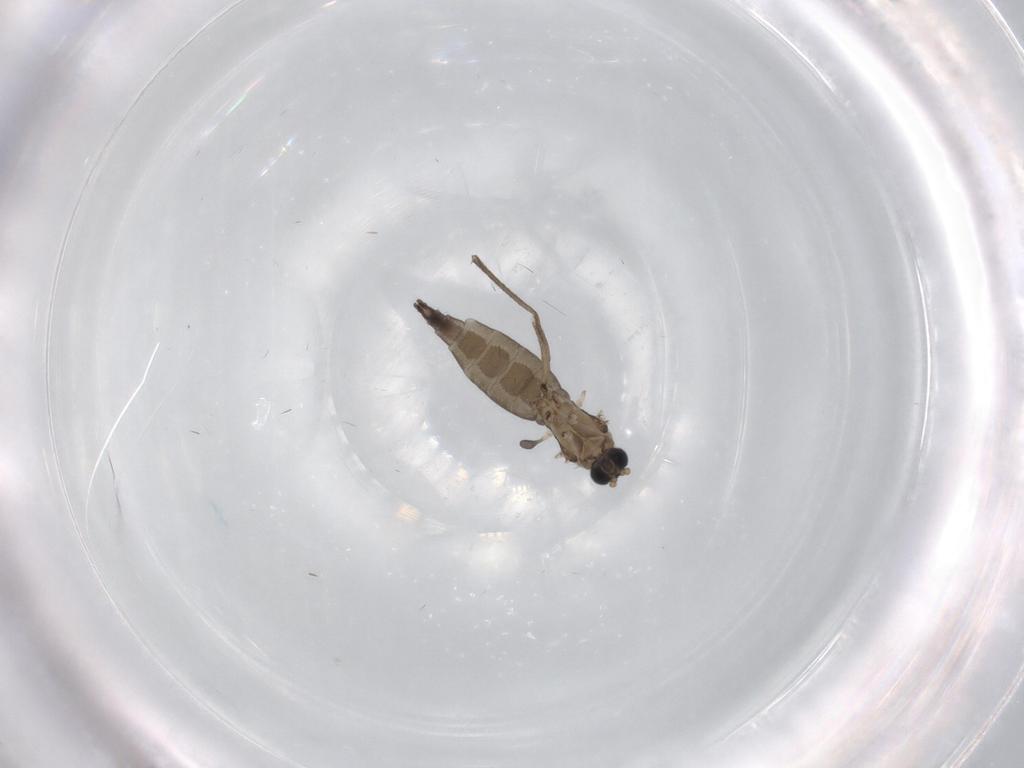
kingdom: Animalia
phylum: Arthropoda
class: Insecta
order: Diptera
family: Sciaridae
